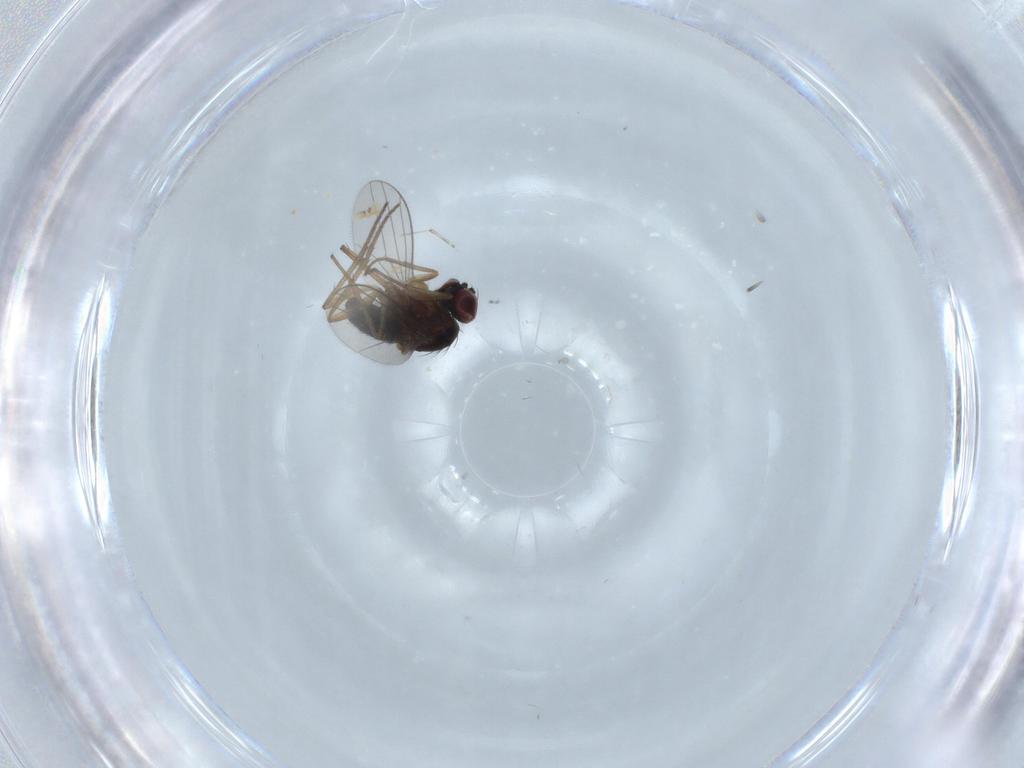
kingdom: Animalia
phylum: Arthropoda
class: Insecta
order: Diptera
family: Dolichopodidae
